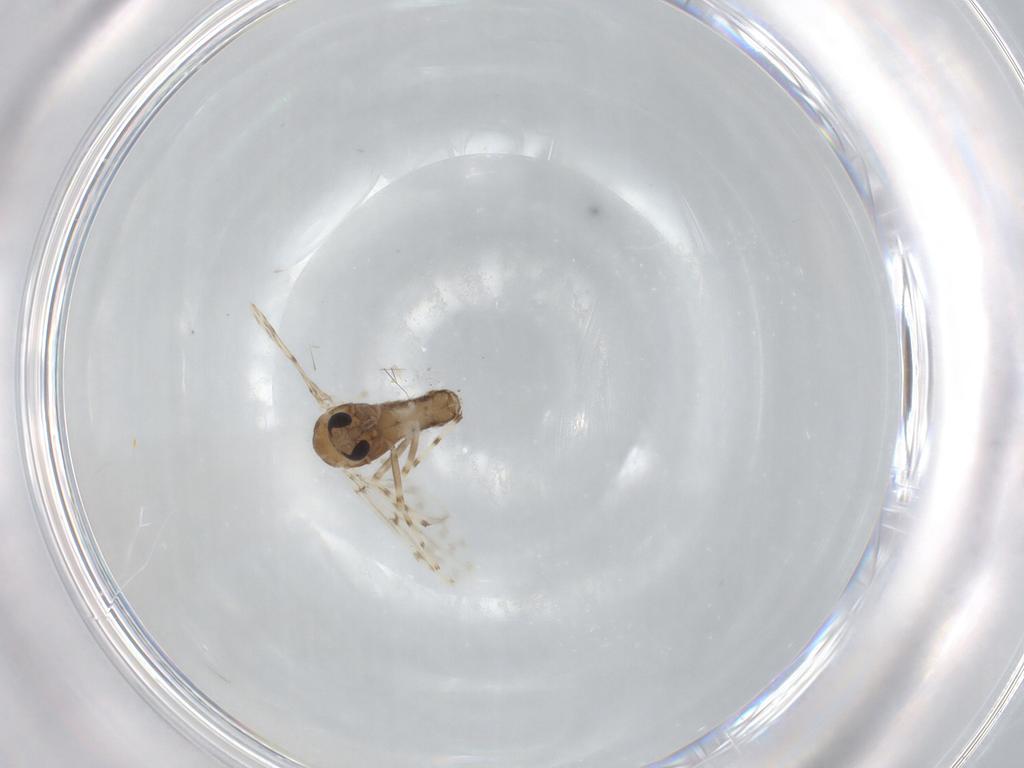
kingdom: Animalia
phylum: Arthropoda
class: Insecta
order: Diptera
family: Chironomidae
